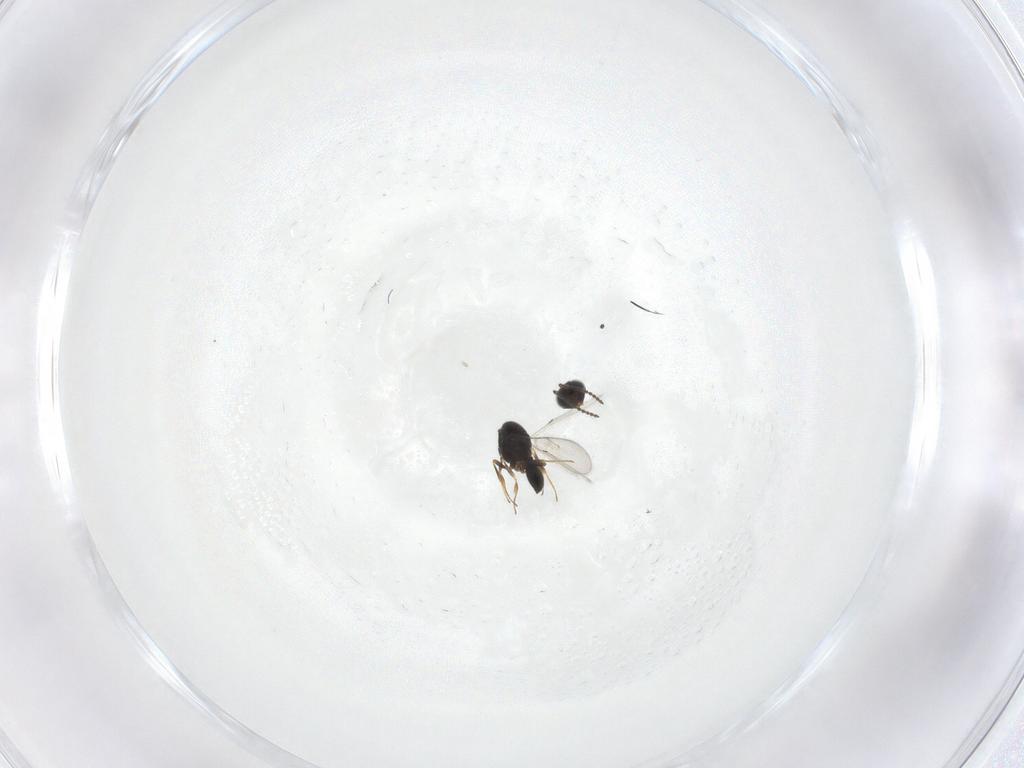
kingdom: Animalia
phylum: Arthropoda
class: Insecta
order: Hymenoptera
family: Scelionidae
